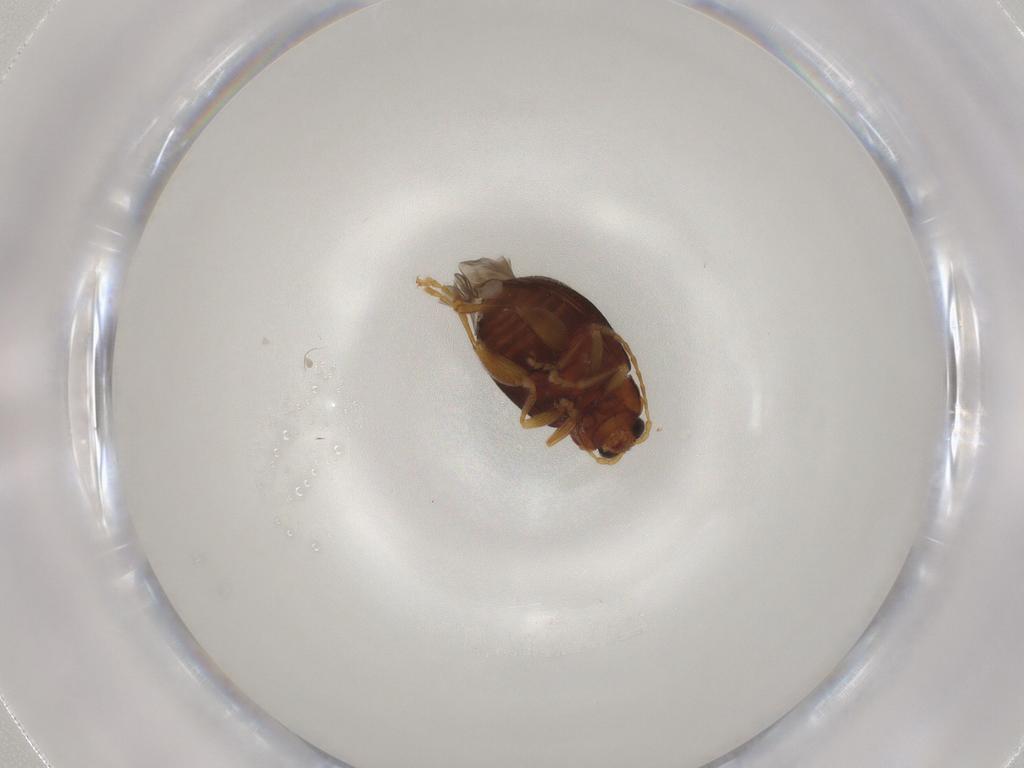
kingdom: Animalia
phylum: Arthropoda
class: Insecta
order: Coleoptera
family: Chrysomelidae
